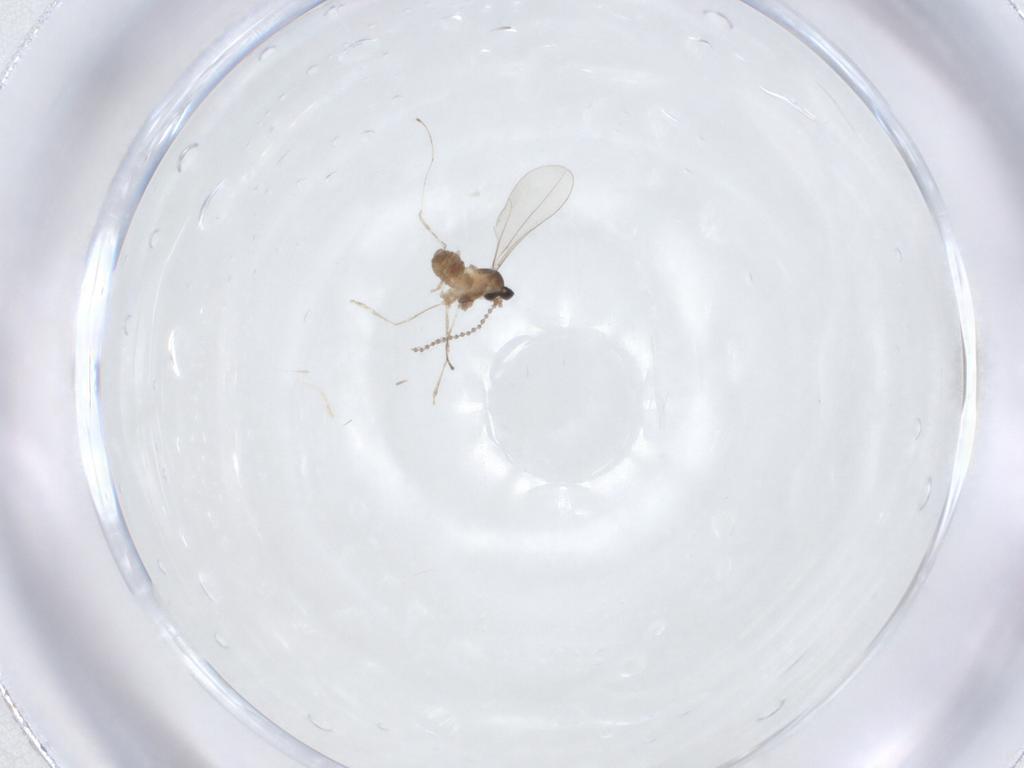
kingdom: Animalia
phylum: Arthropoda
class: Insecta
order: Diptera
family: Cecidomyiidae
